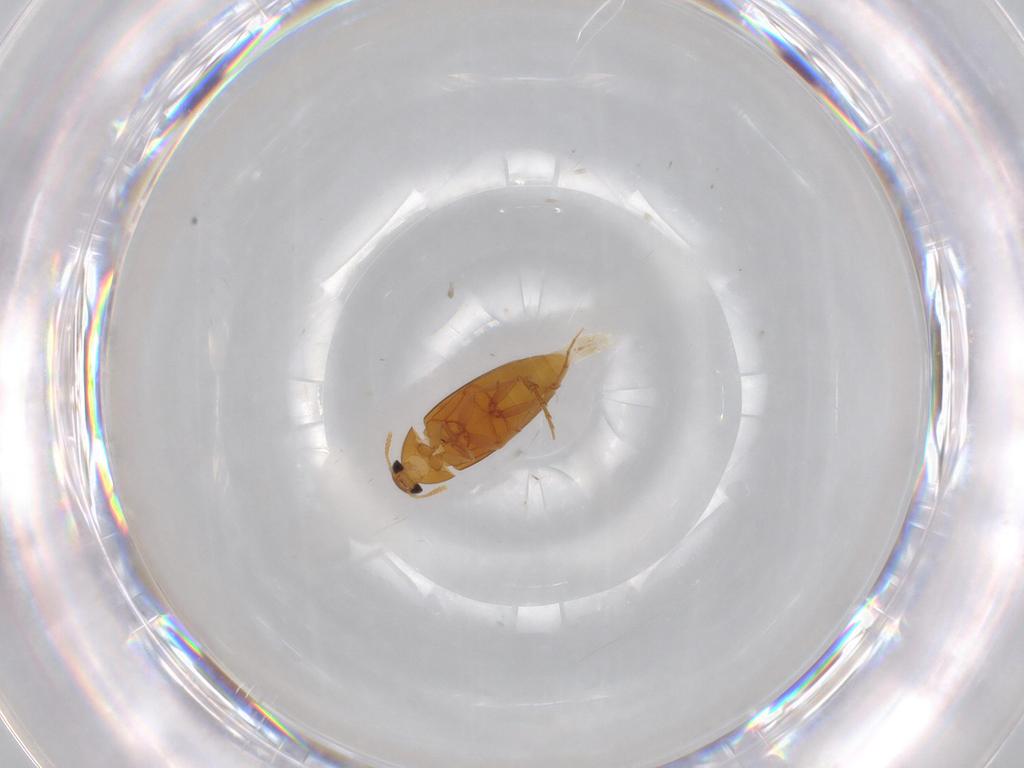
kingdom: Animalia
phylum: Arthropoda
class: Insecta
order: Coleoptera
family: Scraptiidae
